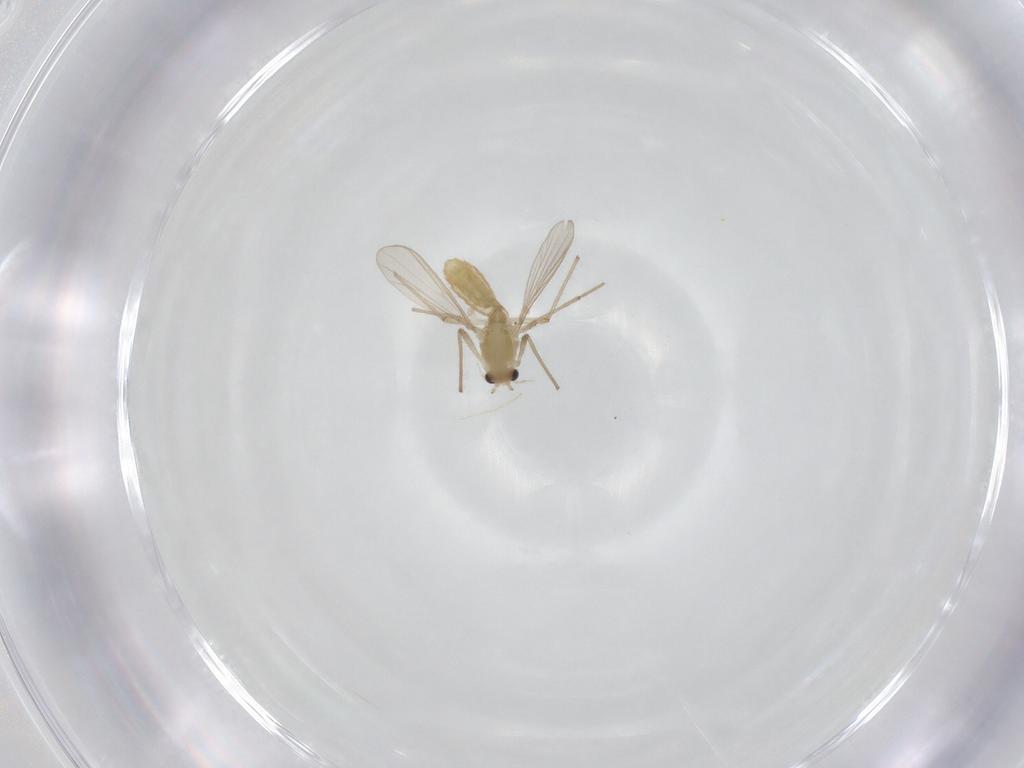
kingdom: Animalia
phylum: Arthropoda
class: Insecta
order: Diptera
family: Chironomidae
